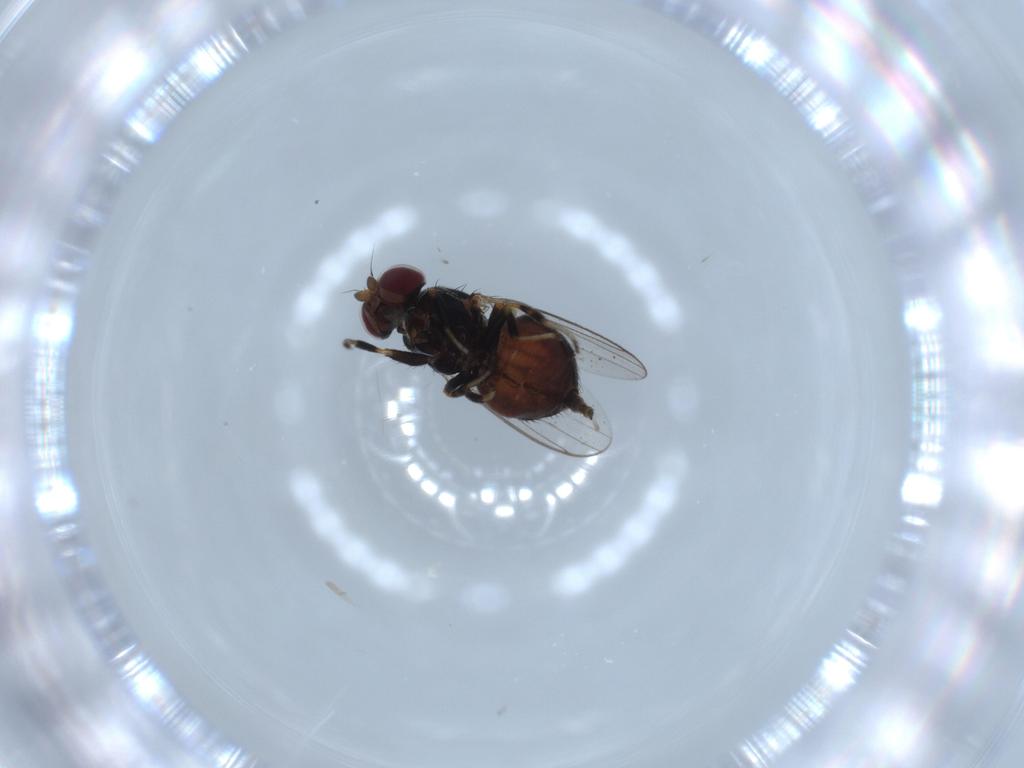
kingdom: Animalia
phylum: Arthropoda
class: Insecta
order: Diptera
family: Chloropidae
